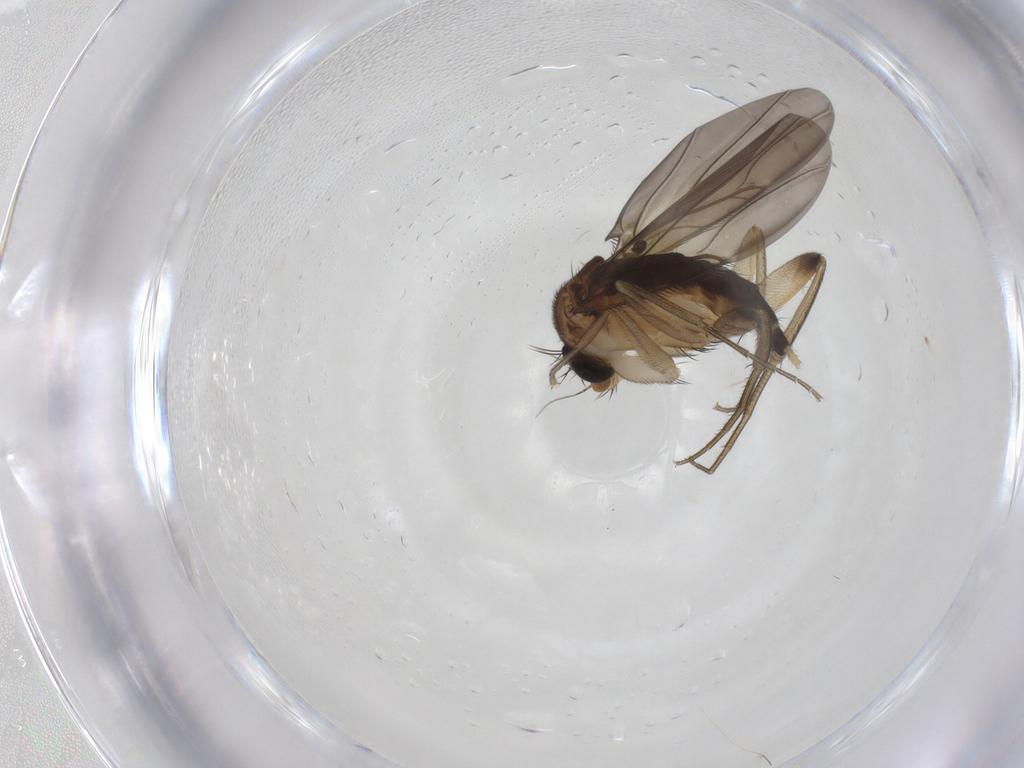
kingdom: Animalia
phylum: Arthropoda
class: Insecta
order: Diptera
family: Phoridae
